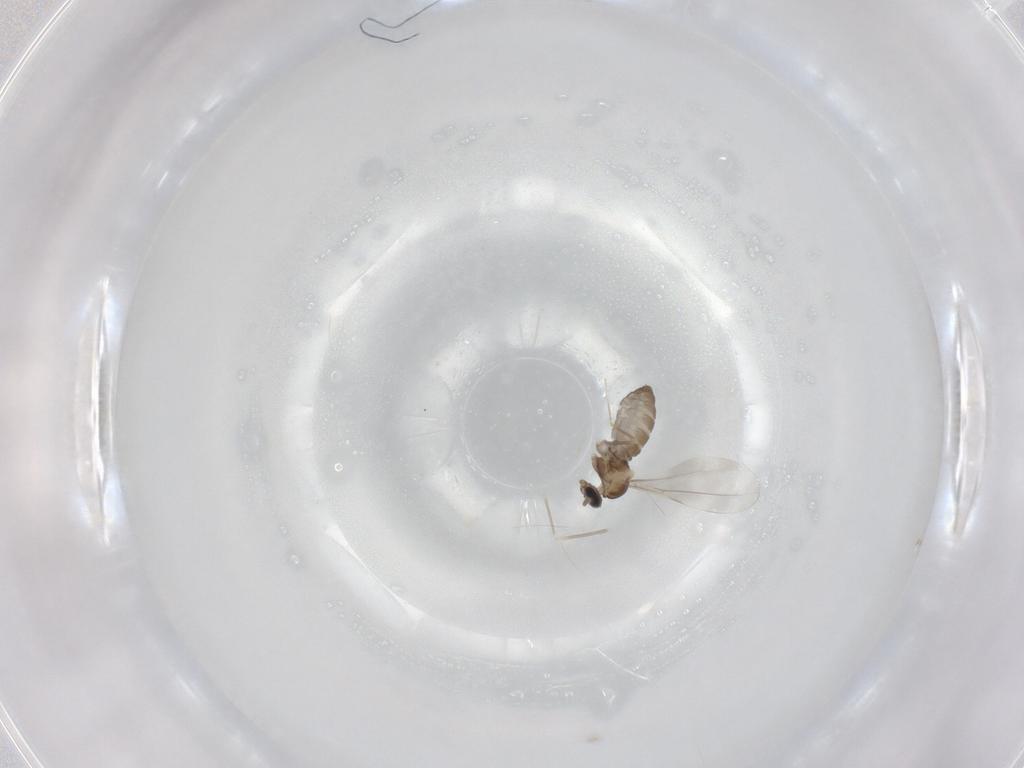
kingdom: Animalia
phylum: Arthropoda
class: Insecta
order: Diptera
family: Cecidomyiidae
